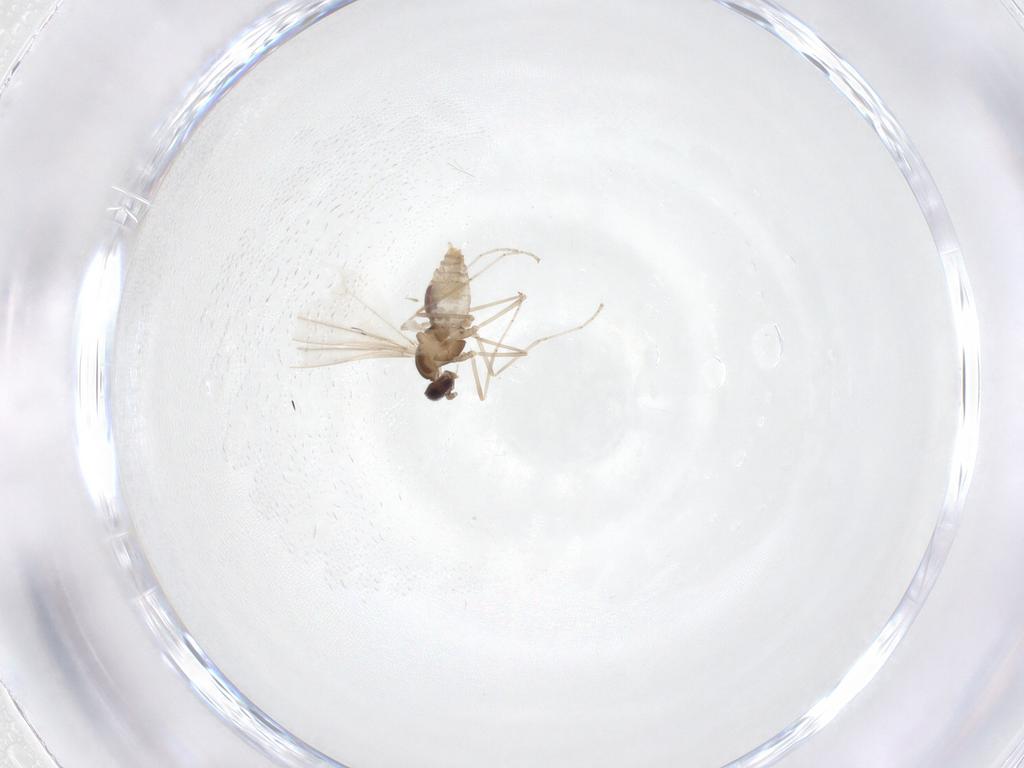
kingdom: Animalia
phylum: Arthropoda
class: Insecta
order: Diptera
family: Cecidomyiidae
